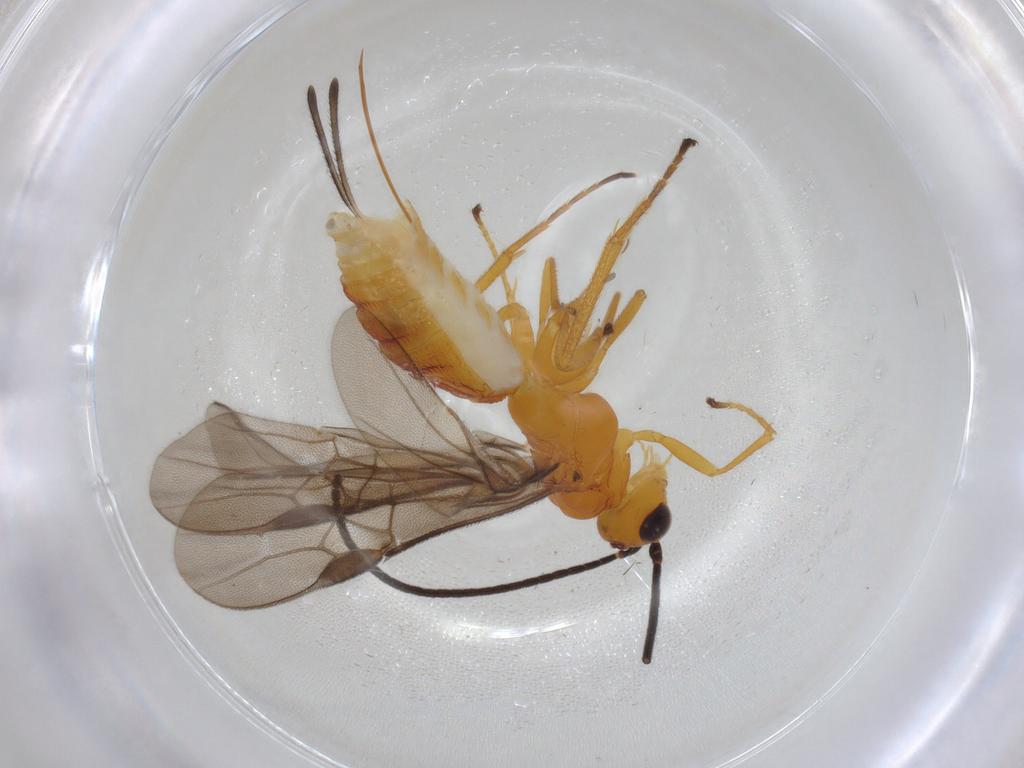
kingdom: Animalia
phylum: Arthropoda
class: Insecta
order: Hymenoptera
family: Braconidae
